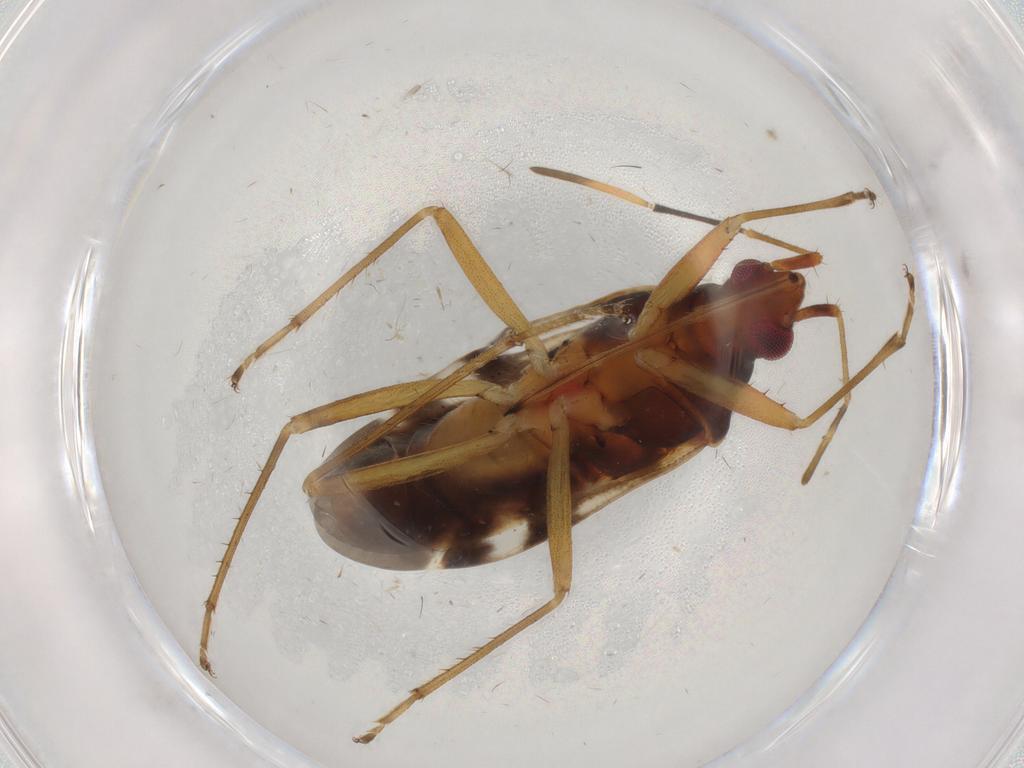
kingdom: Animalia
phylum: Arthropoda
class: Insecta
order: Hemiptera
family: Rhyparochromidae
